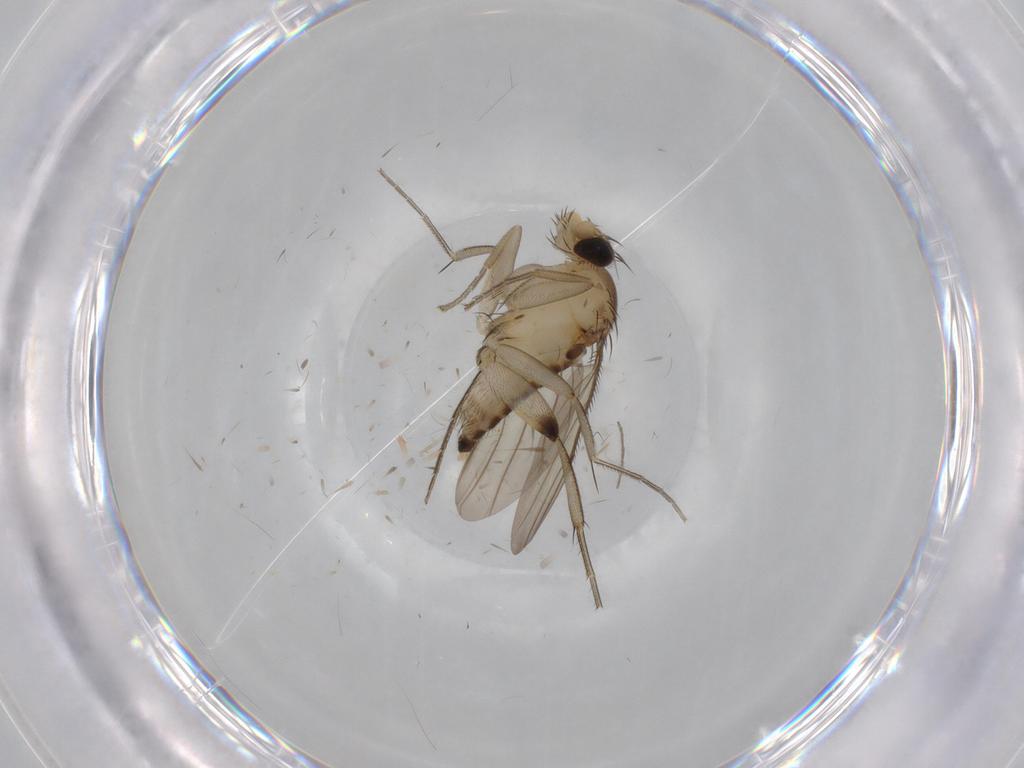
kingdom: Animalia
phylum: Arthropoda
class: Insecta
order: Diptera
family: Phoridae
